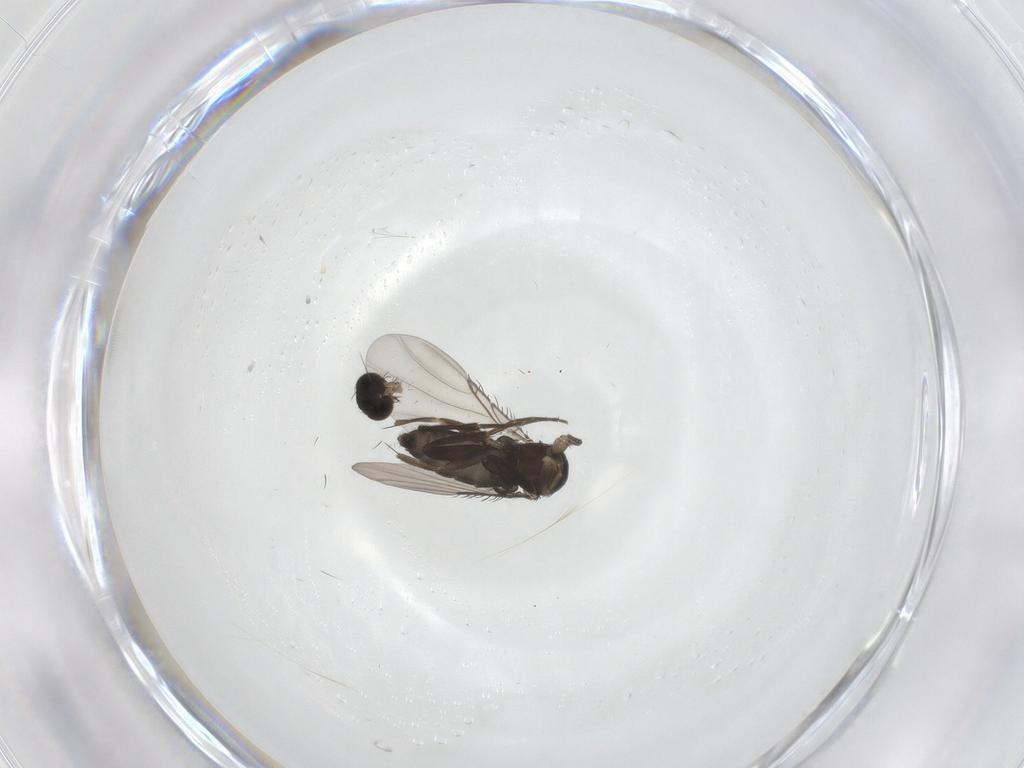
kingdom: Animalia
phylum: Arthropoda
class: Insecta
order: Diptera
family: Phoridae
